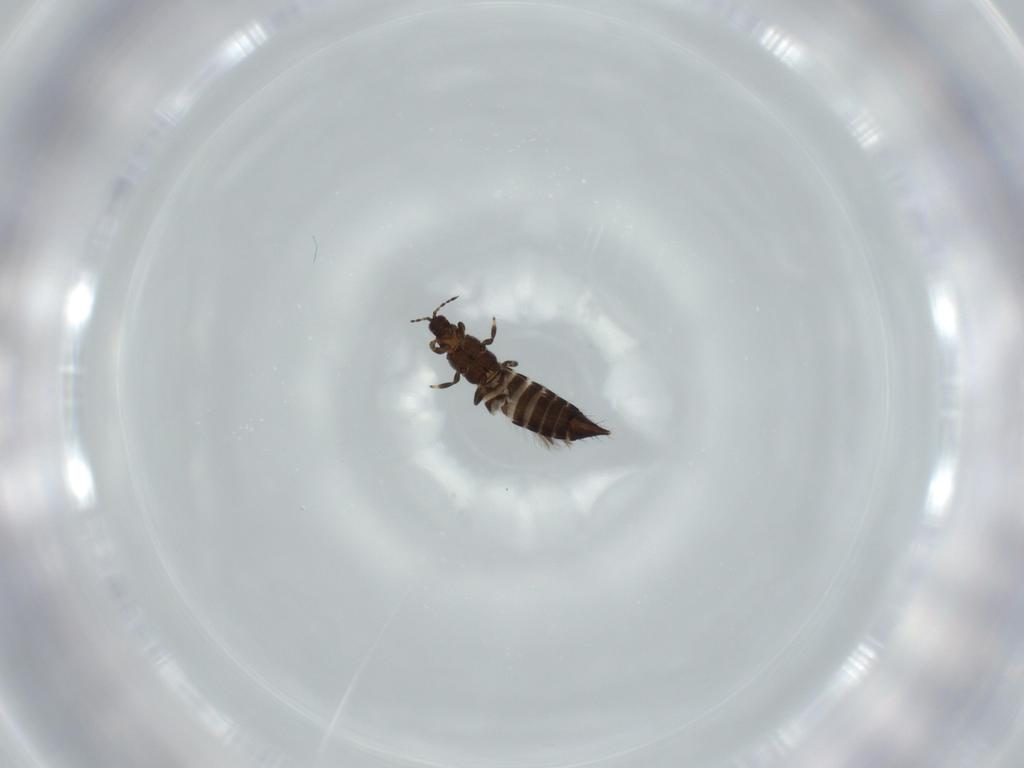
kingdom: Animalia
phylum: Arthropoda
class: Insecta
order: Thysanoptera
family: Thripidae
